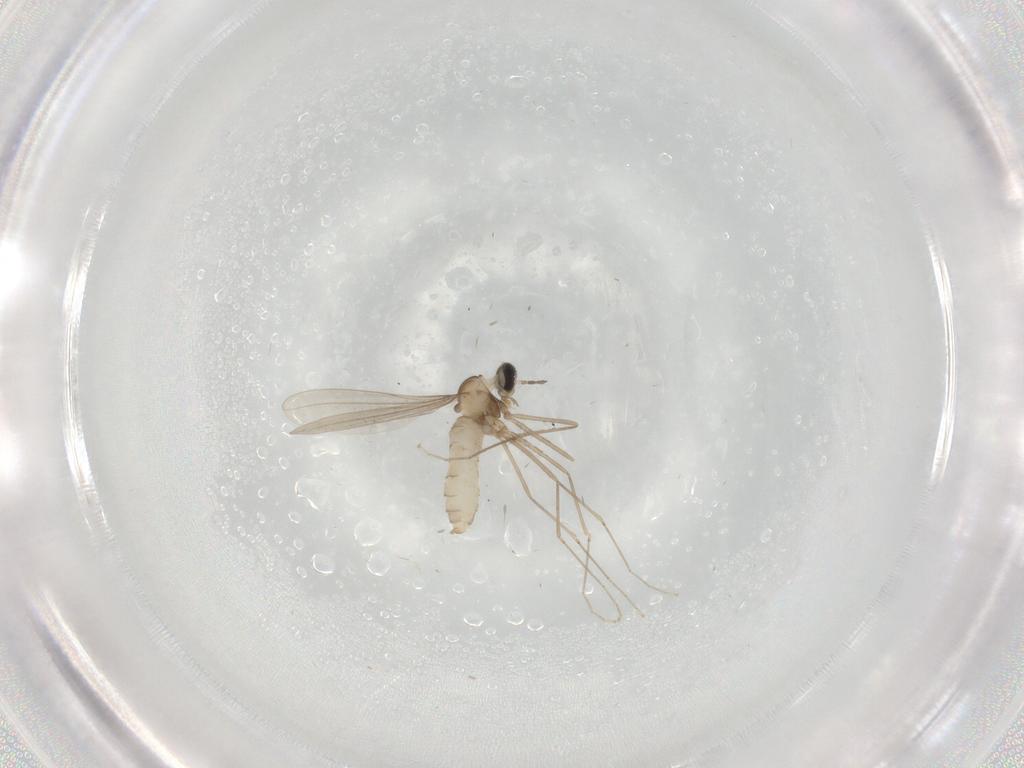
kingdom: Animalia
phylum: Arthropoda
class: Insecta
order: Diptera
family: Cecidomyiidae
